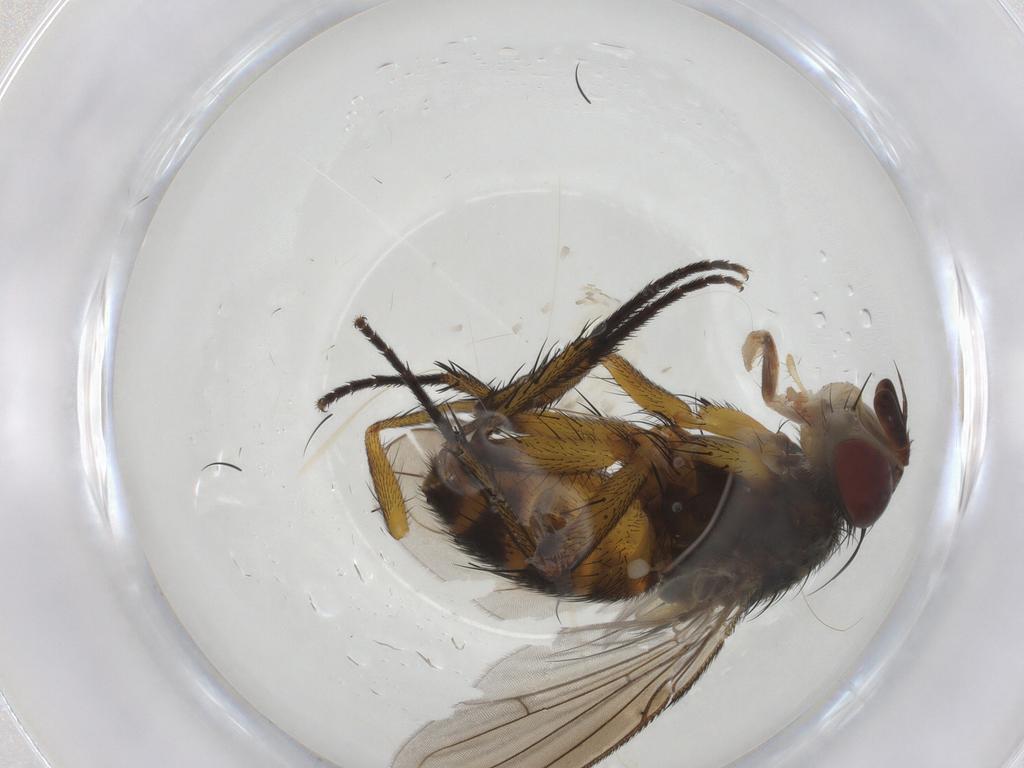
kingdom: Animalia
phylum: Arthropoda
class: Insecta
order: Diptera
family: Tachinidae
